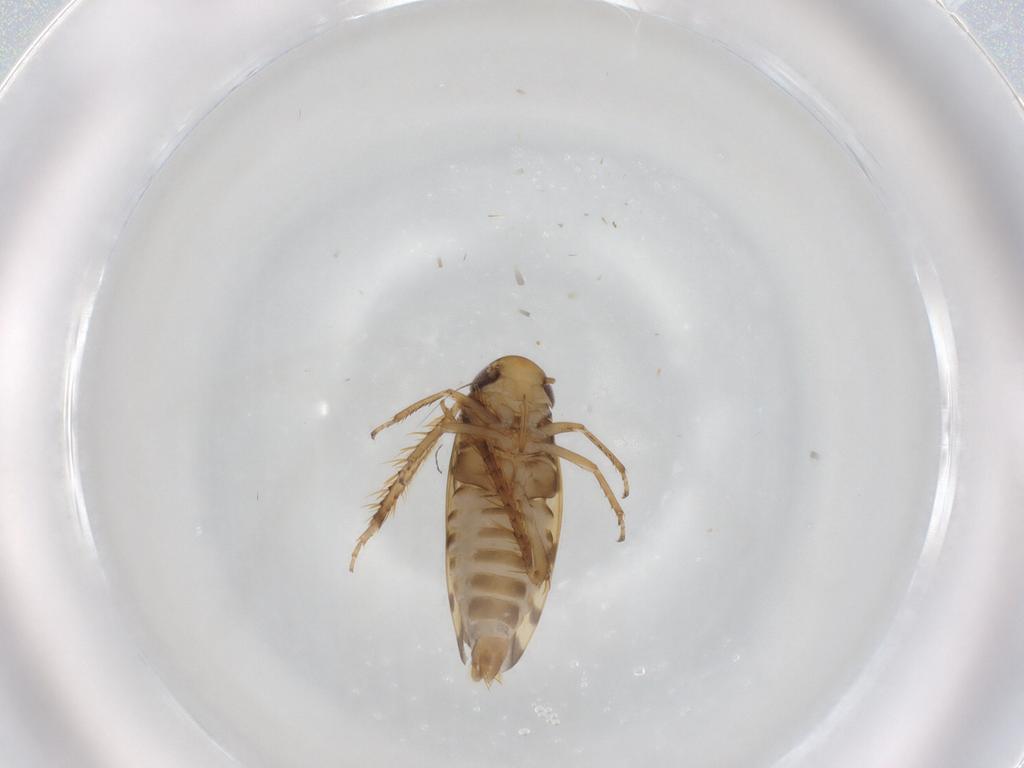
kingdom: Animalia
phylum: Arthropoda
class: Insecta
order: Hemiptera
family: Cicadellidae
